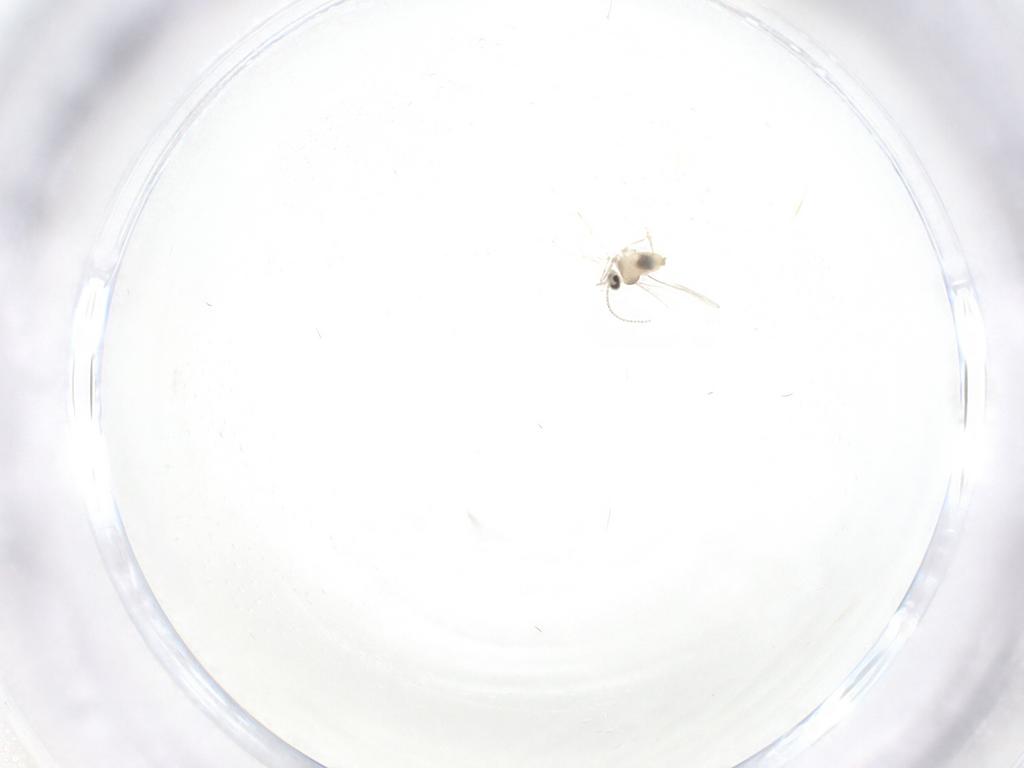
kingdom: Animalia
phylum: Arthropoda
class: Insecta
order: Diptera
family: Cecidomyiidae
